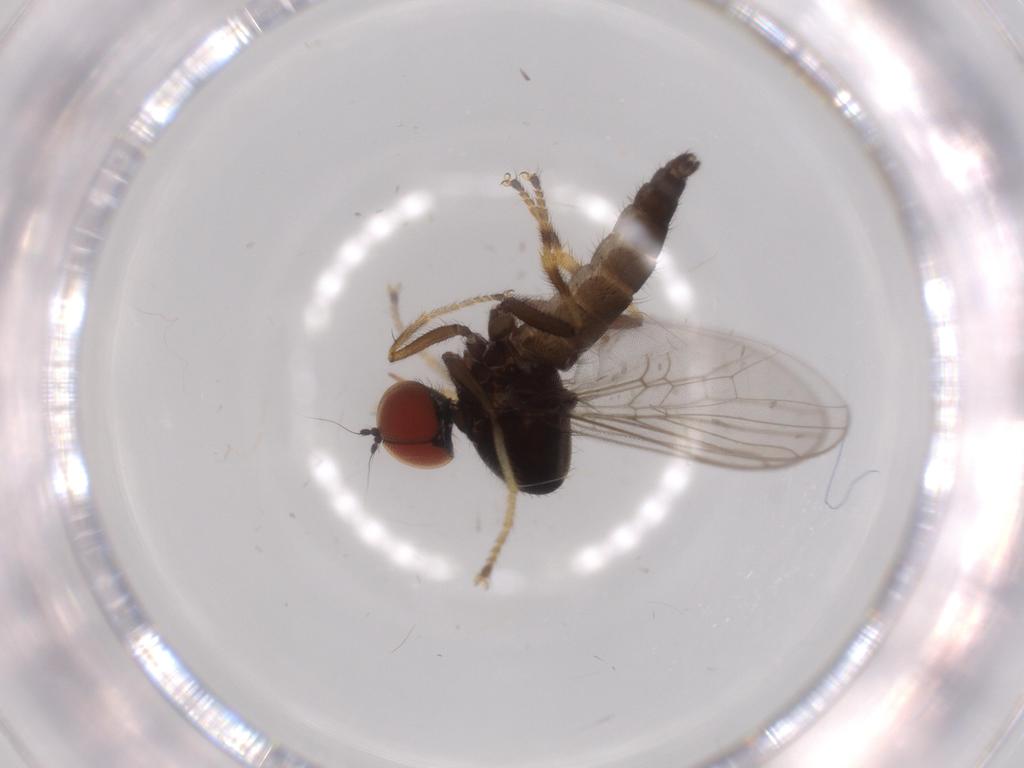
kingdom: Animalia
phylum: Arthropoda
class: Insecta
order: Diptera
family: Hybotidae
